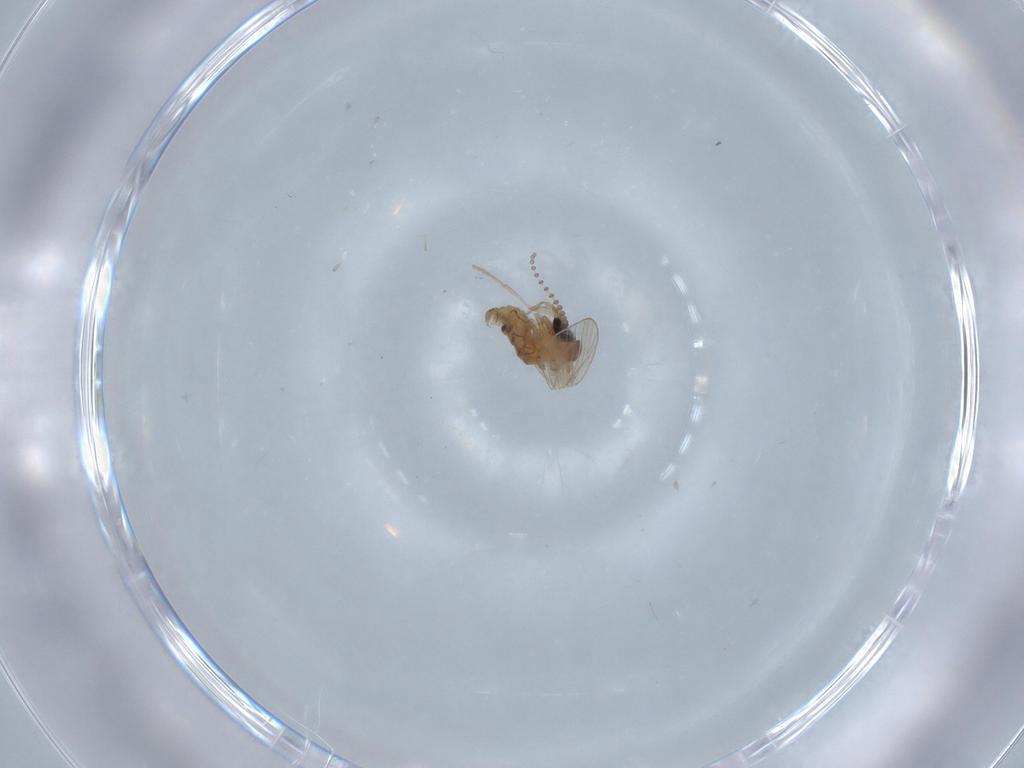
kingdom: Animalia
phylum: Arthropoda
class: Insecta
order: Diptera
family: Psychodidae
